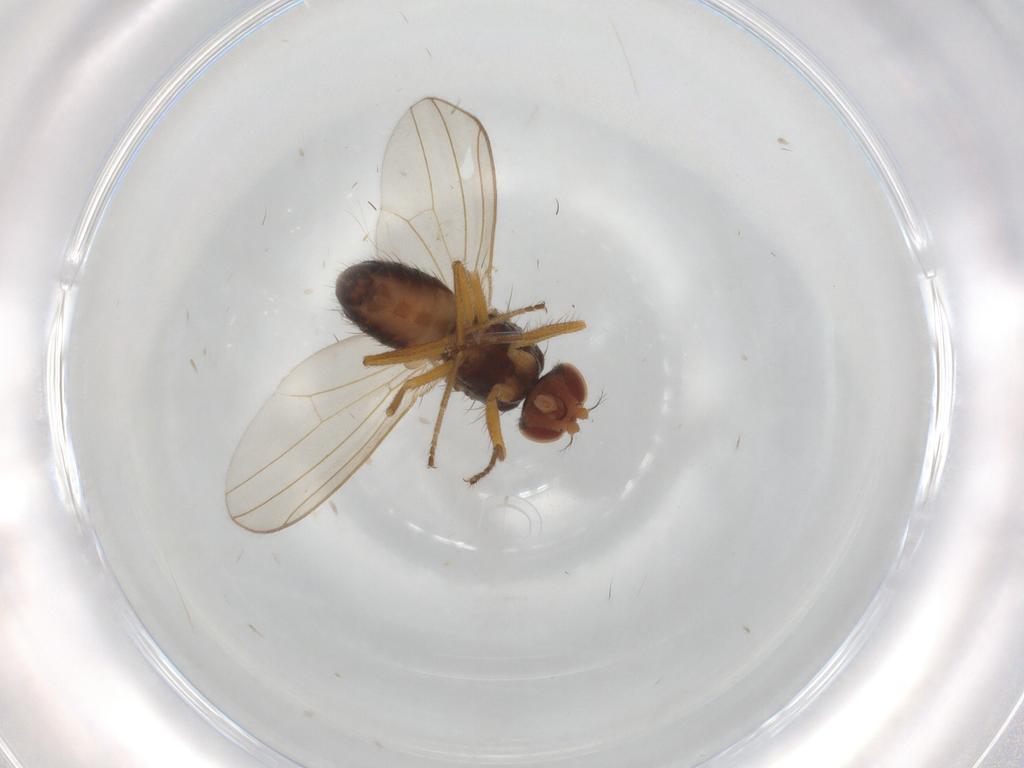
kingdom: Animalia
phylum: Arthropoda
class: Insecta
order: Diptera
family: Drosophilidae
